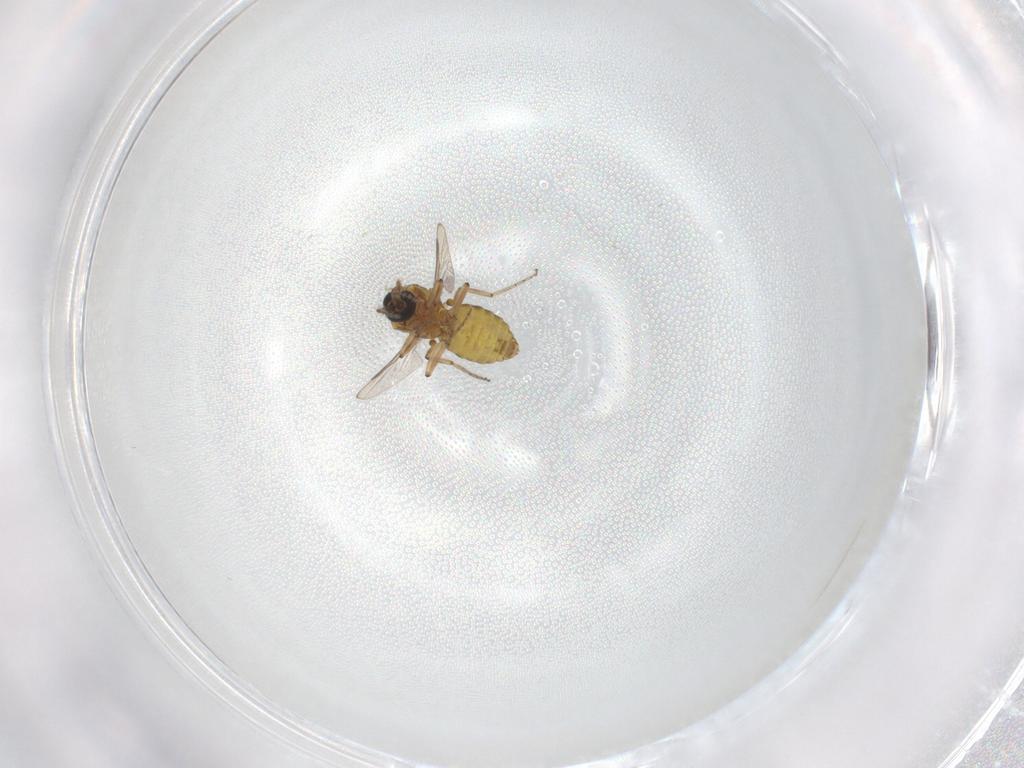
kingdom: Animalia
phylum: Arthropoda
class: Insecta
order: Diptera
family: Ceratopogonidae
